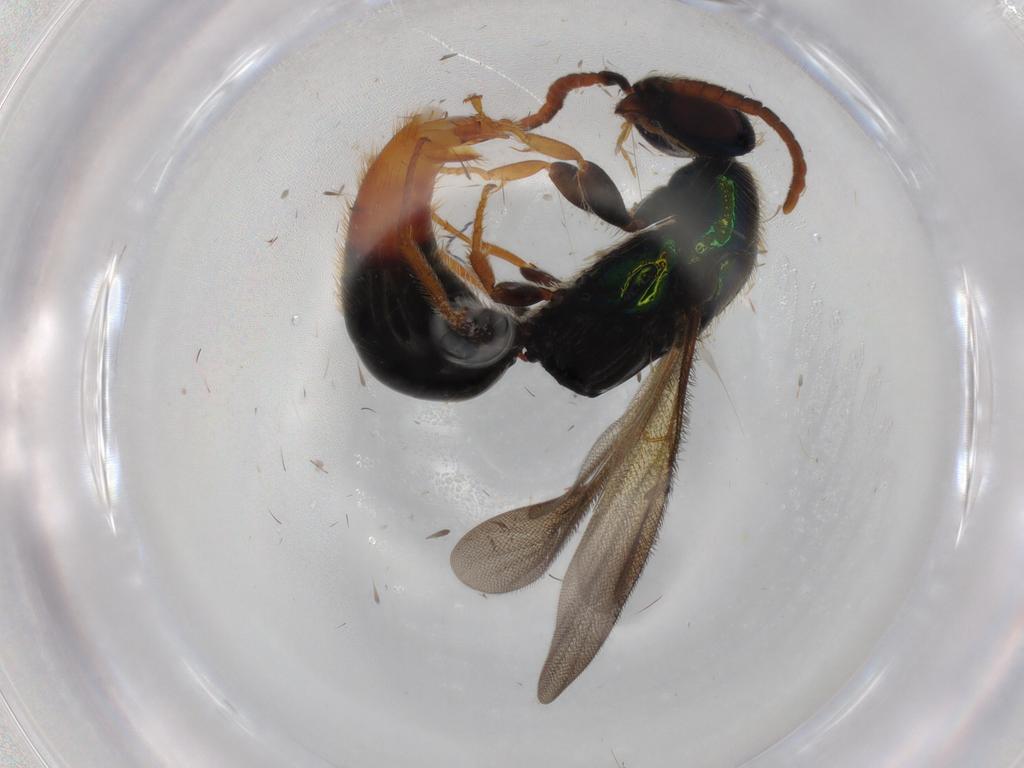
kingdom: Animalia
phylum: Arthropoda
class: Insecta
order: Hymenoptera
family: Bethylidae
